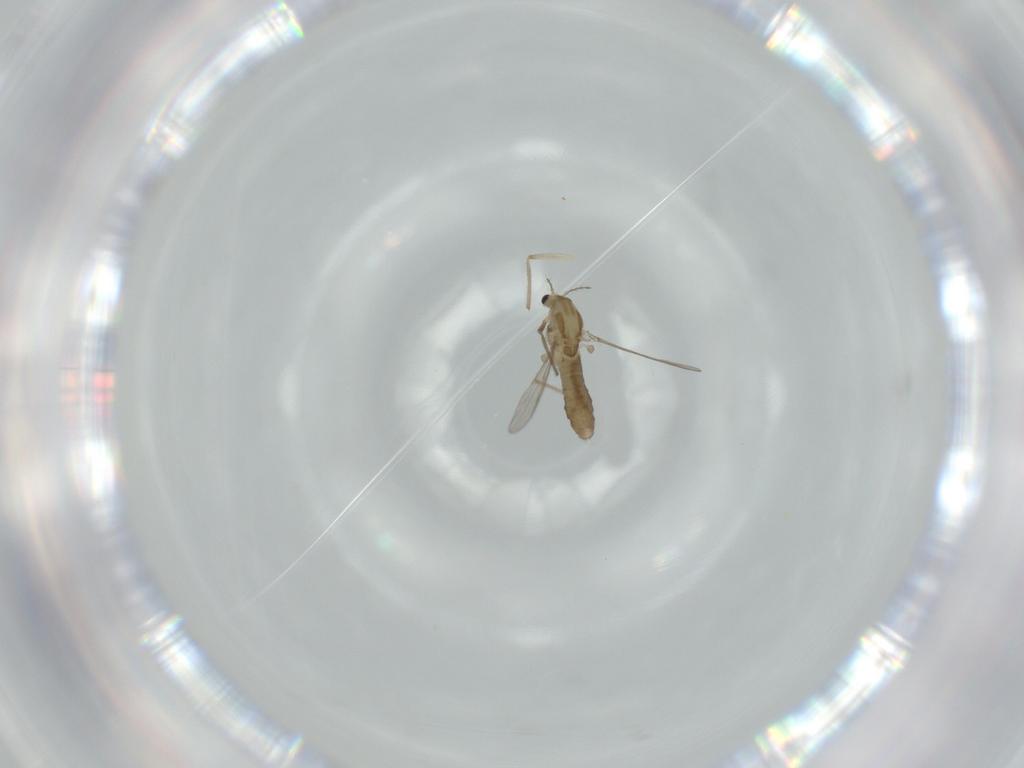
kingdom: Animalia
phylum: Arthropoda
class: Insecta
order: Diptera
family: Chironomidae
